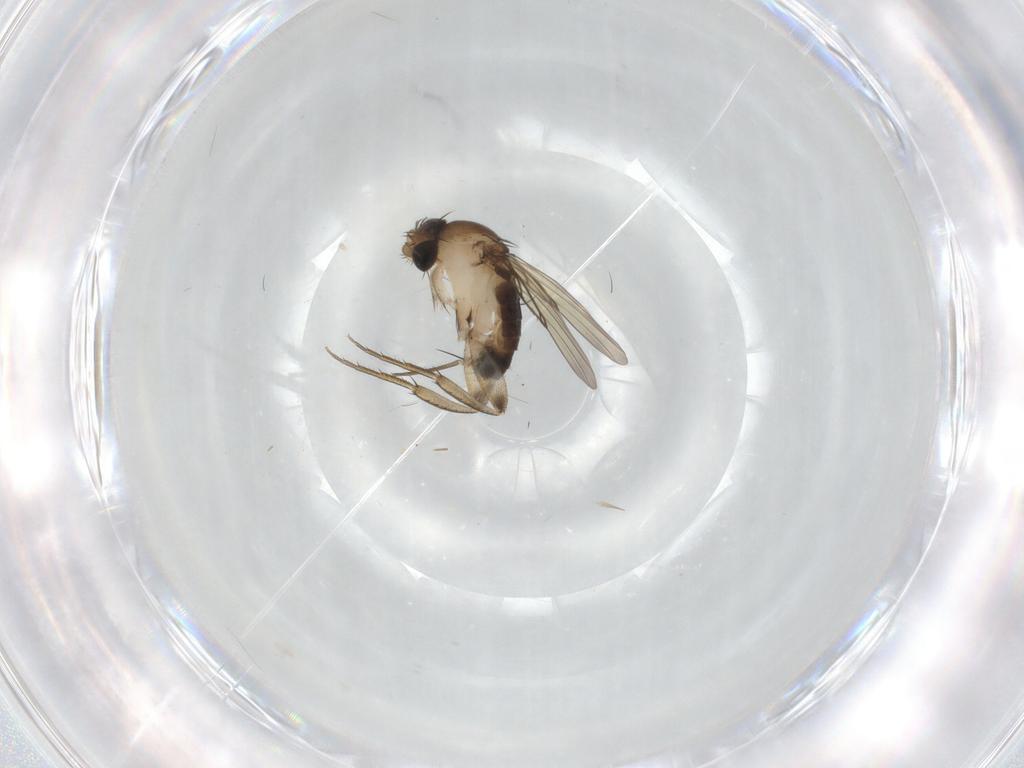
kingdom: Animalia
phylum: Arthropoda
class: Insecta
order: Diptera
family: Phoridae
